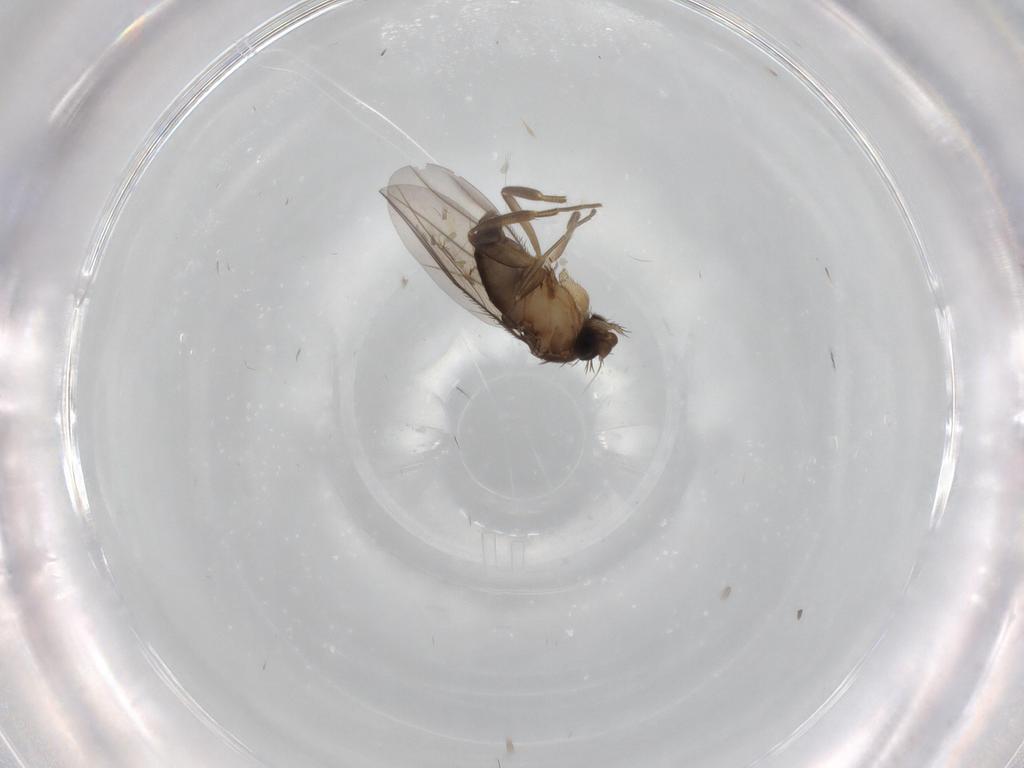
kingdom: Animalia
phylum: Arthropoda
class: Insecta
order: Diptera
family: Phoridae
